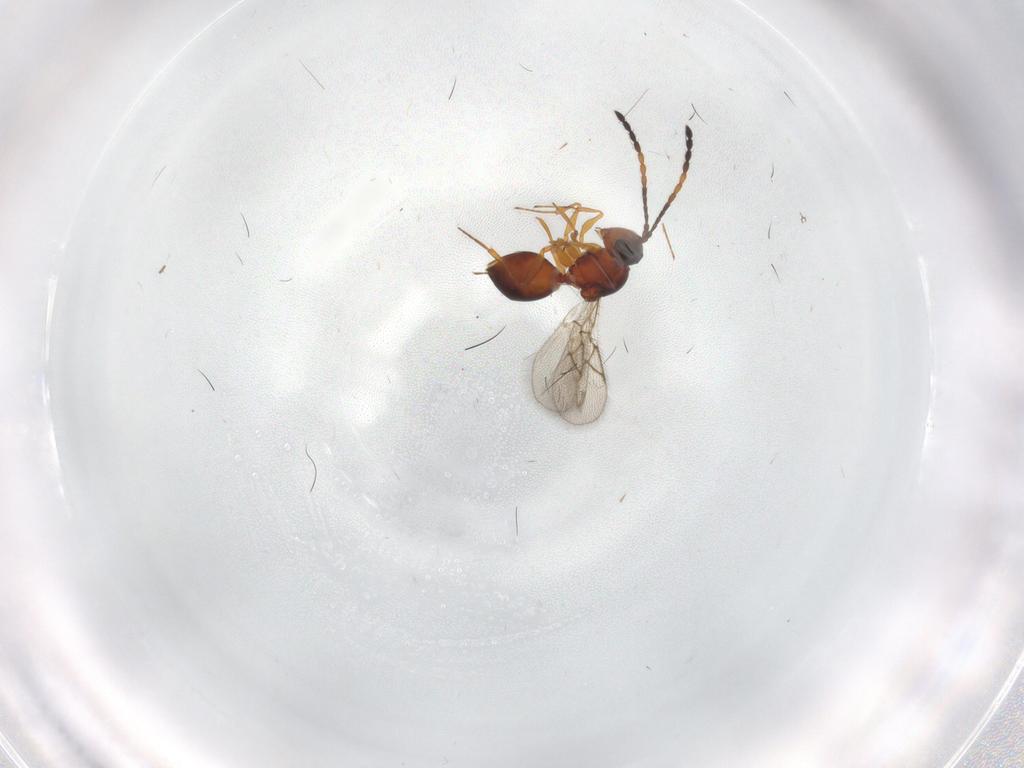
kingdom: Animalia
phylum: Arthropoda
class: Insecta
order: Hymenoptera
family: Figitidae
